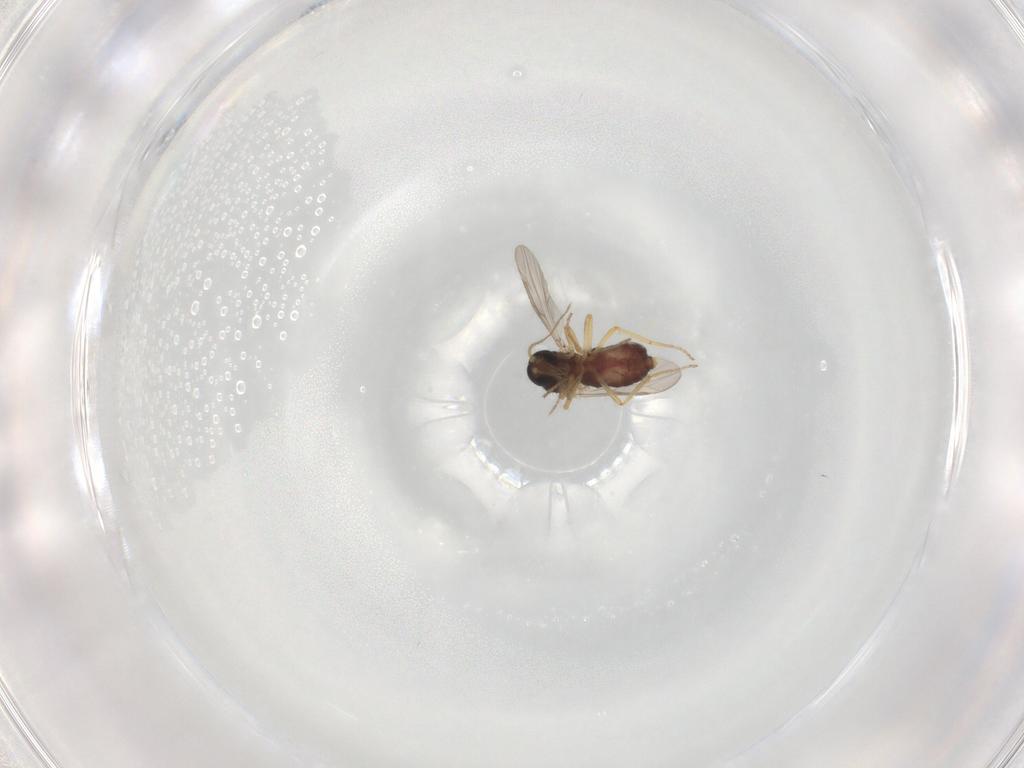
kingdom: Animalia
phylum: Arthropoda
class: Insecta
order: Diptera
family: Ceratopogonidae
